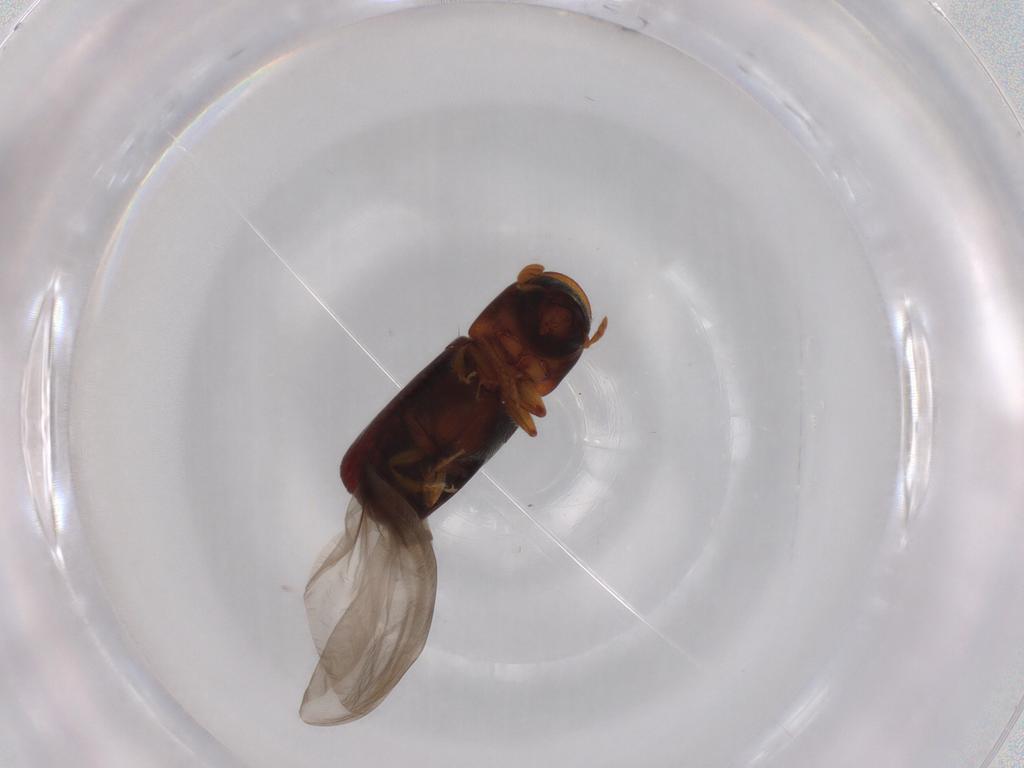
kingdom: Animalia
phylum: Arthropoda
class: Insecta
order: Coleoptera
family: Curculionidae
